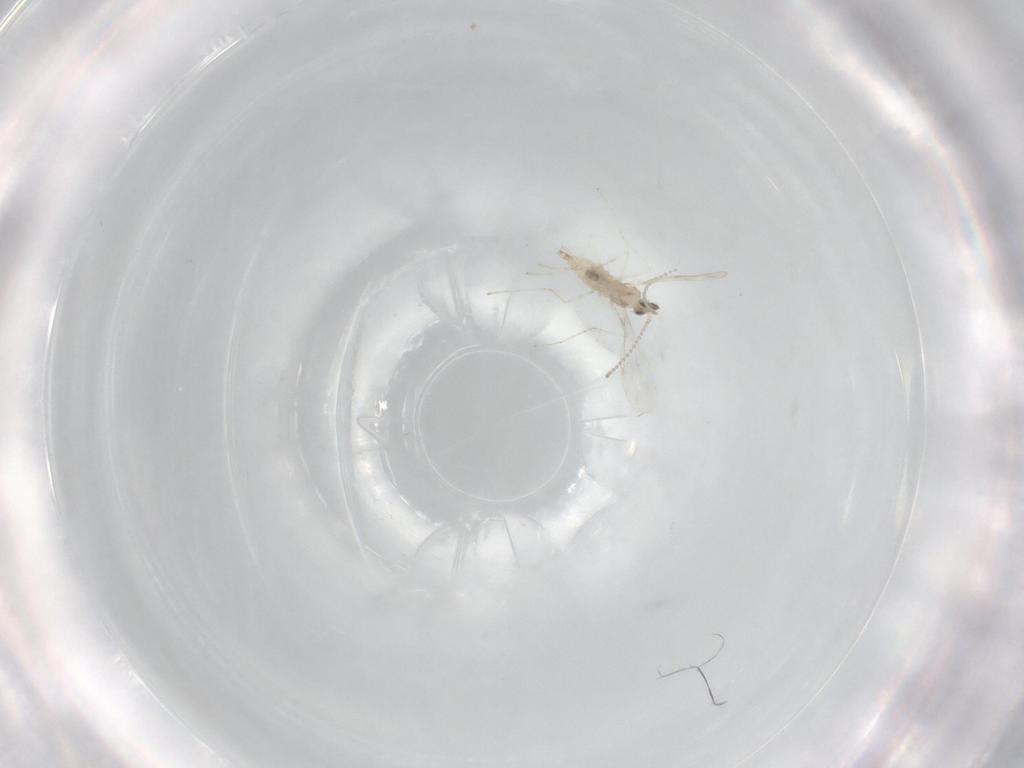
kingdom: Animalia
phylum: Arthropoda
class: Insecta
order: Diptera
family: Cecidomyiidae
